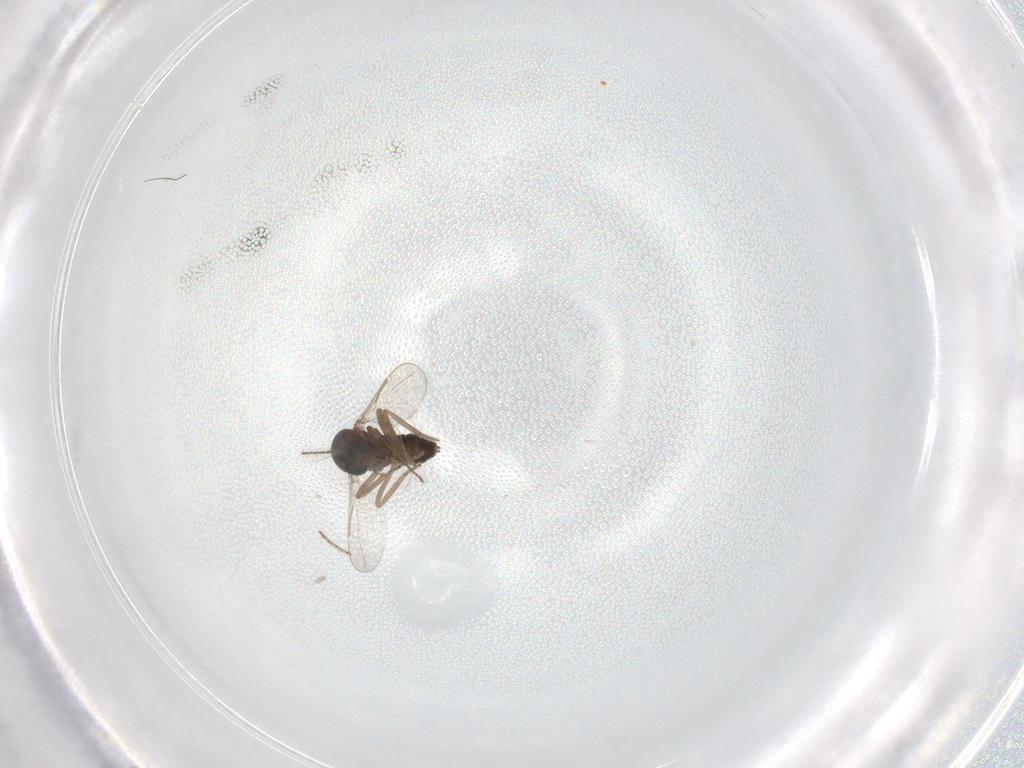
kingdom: Animalia
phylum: Arthropoda
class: Insecta
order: Diptera
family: Ceratopogonidae
